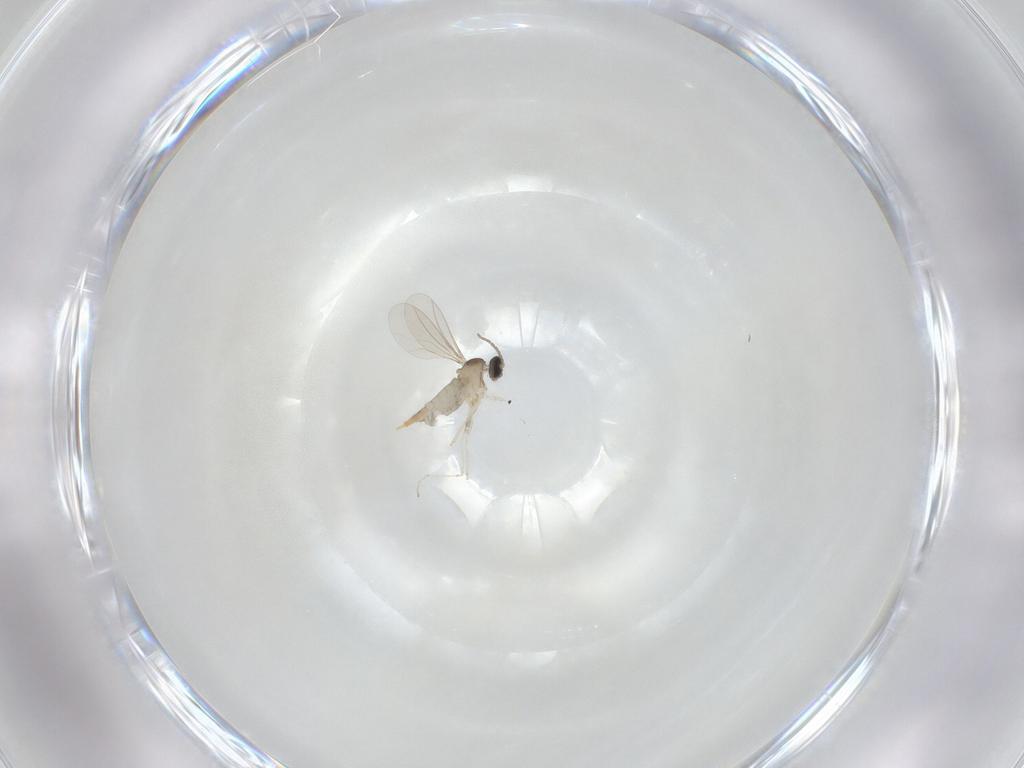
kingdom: Animalia
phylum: Arthropoda
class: Insecta
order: Diptera
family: Cecidomyiidae
